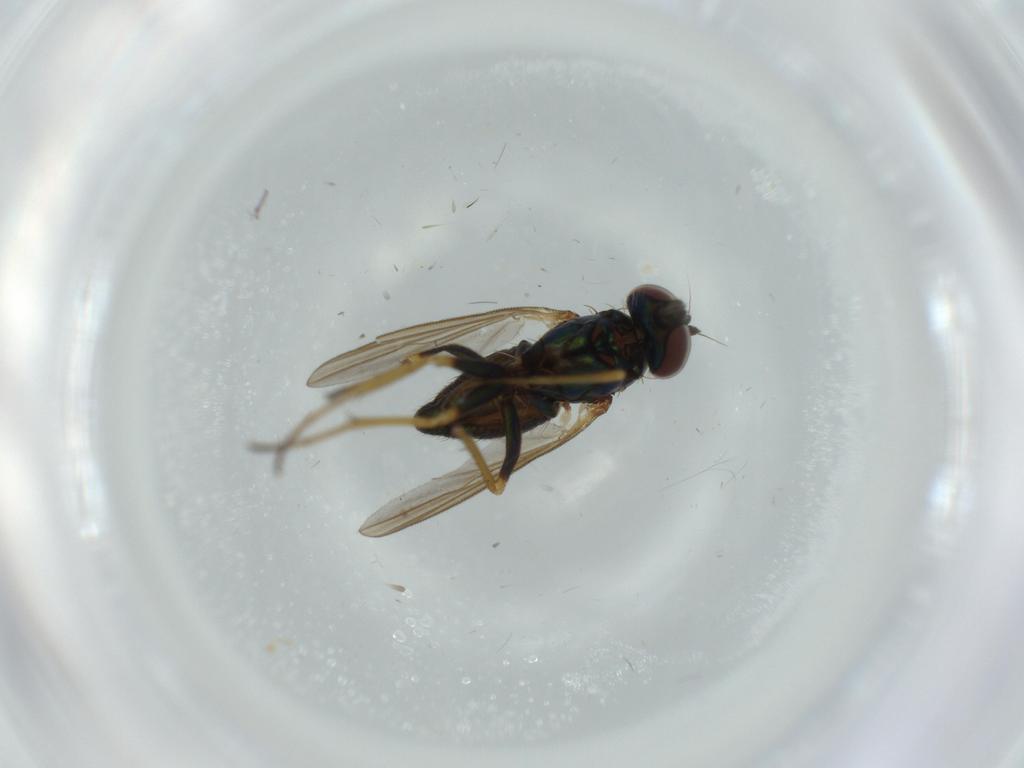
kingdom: Animalia
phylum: Arthropoda
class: Insecta
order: Diptera
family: Dolichopodidae
